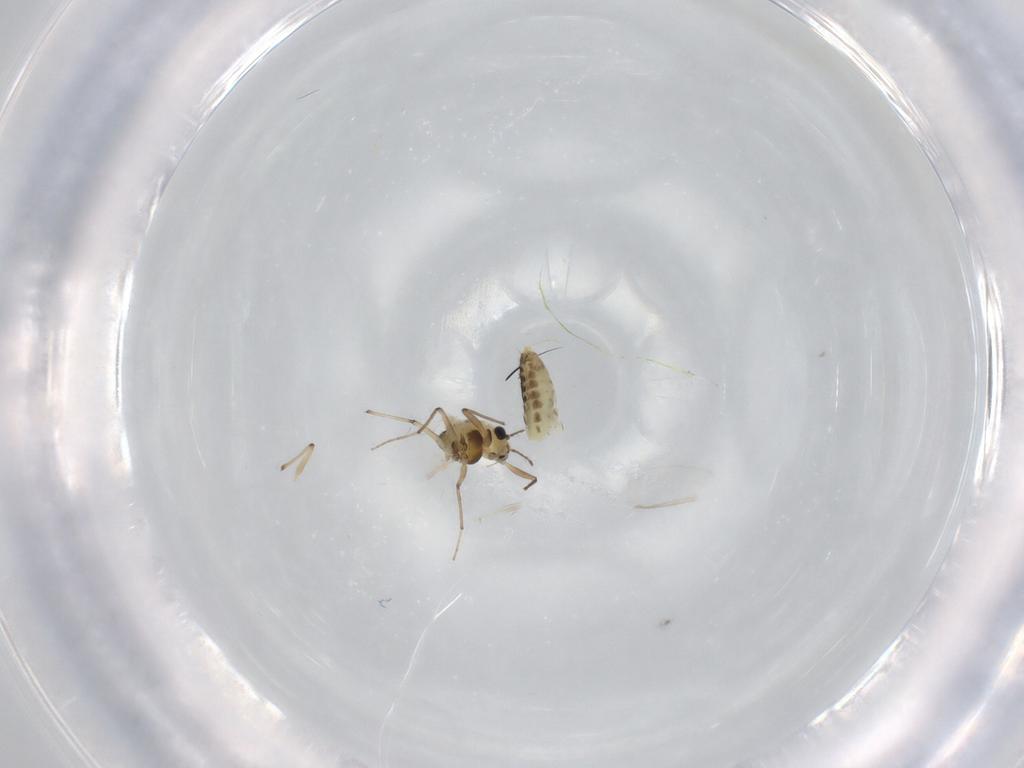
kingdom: Animalia
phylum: Arthropoda
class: Insecta
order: Diptera
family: Chironomidae
